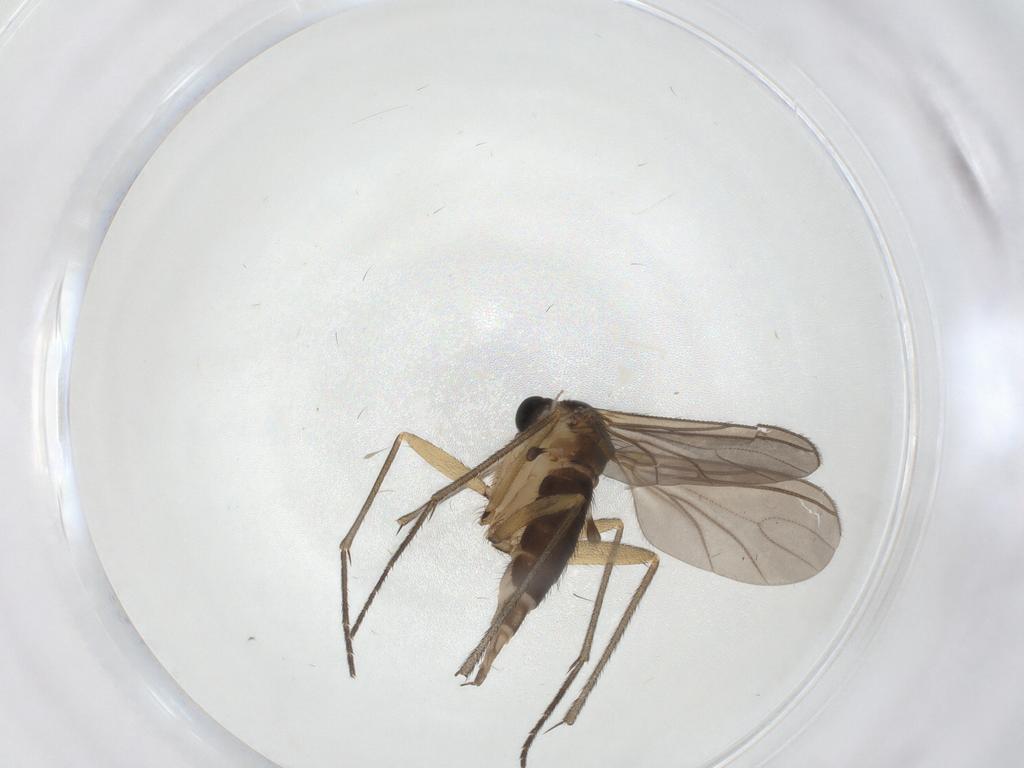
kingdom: Animalia
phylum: Arthropoda
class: Insecta
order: Diptera
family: Sciaridae
